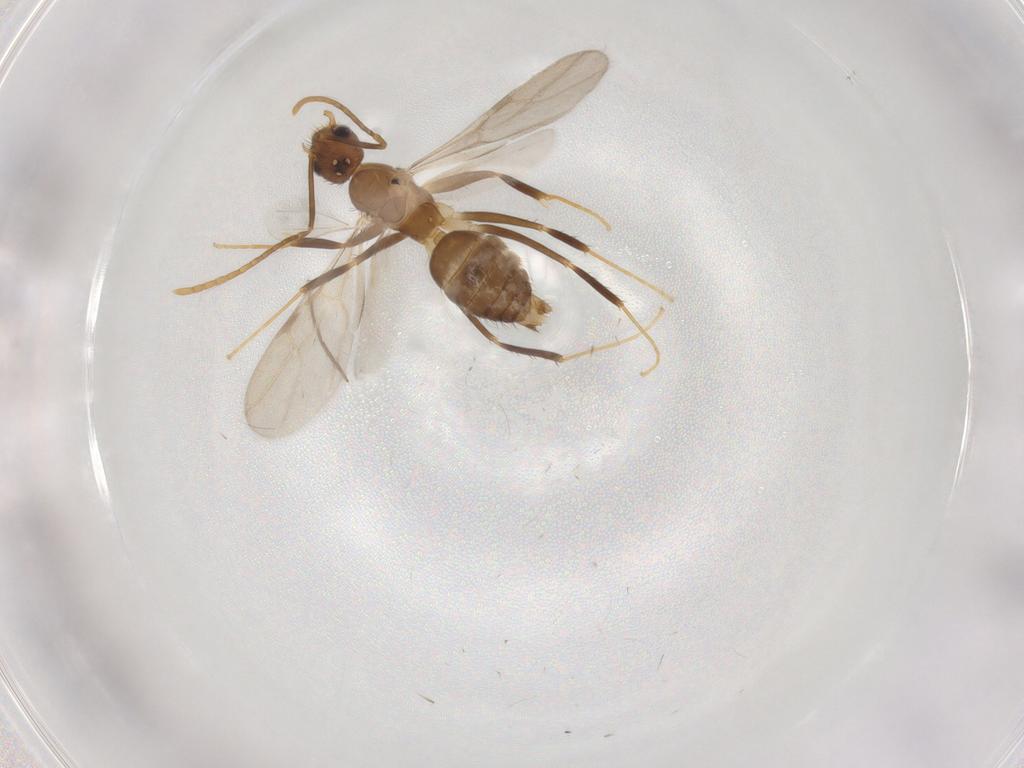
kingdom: Animalia
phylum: Arthropoda
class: Insecta
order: Hymenoptera
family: Formicidae
